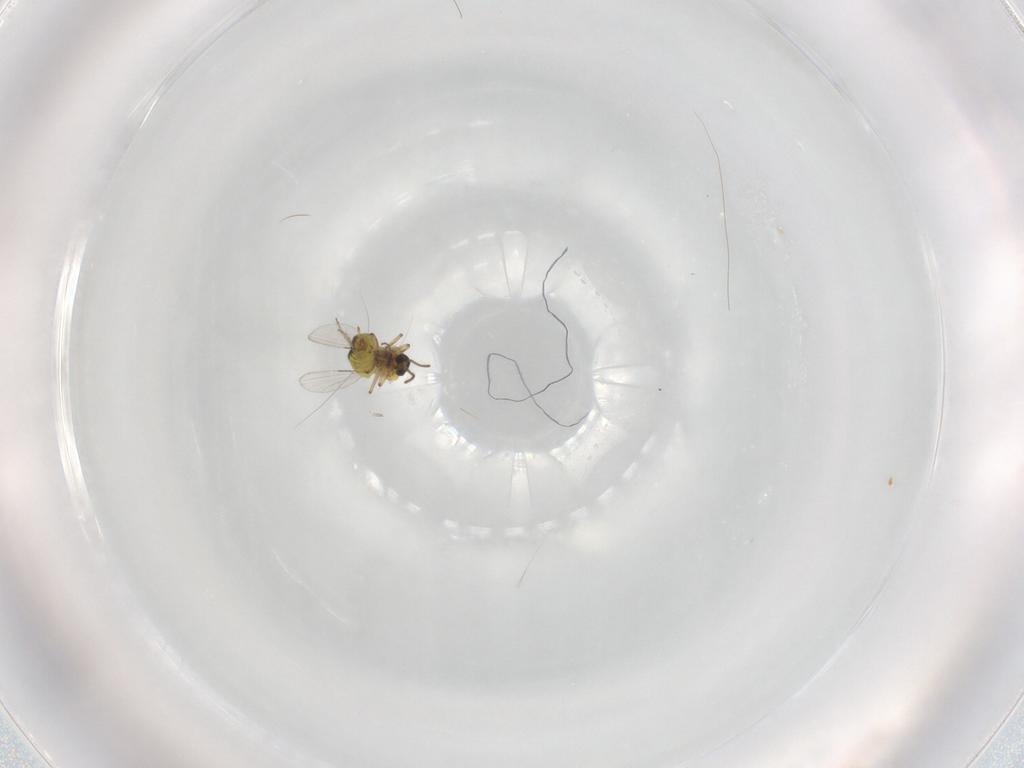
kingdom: Animalia
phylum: Arthropoda
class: Insecta
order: Diptera
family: Ceratopogonidae
